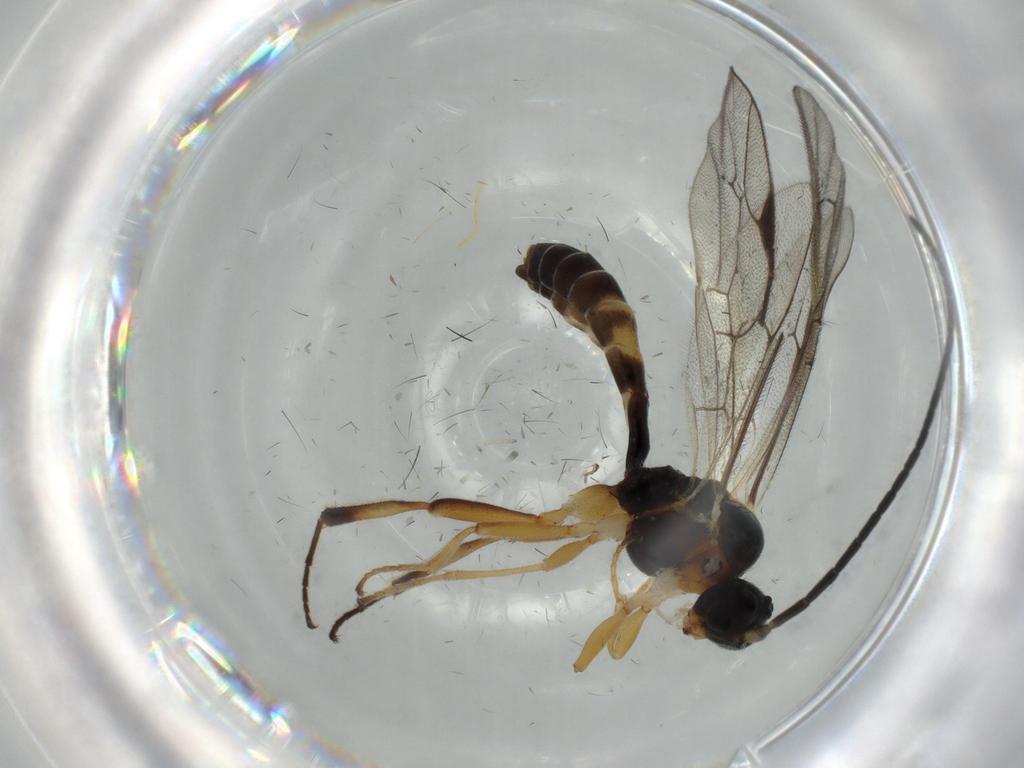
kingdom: Animalia
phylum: Arthropoda
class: Insecta
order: Hymenoptera
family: Ichneumonidae
